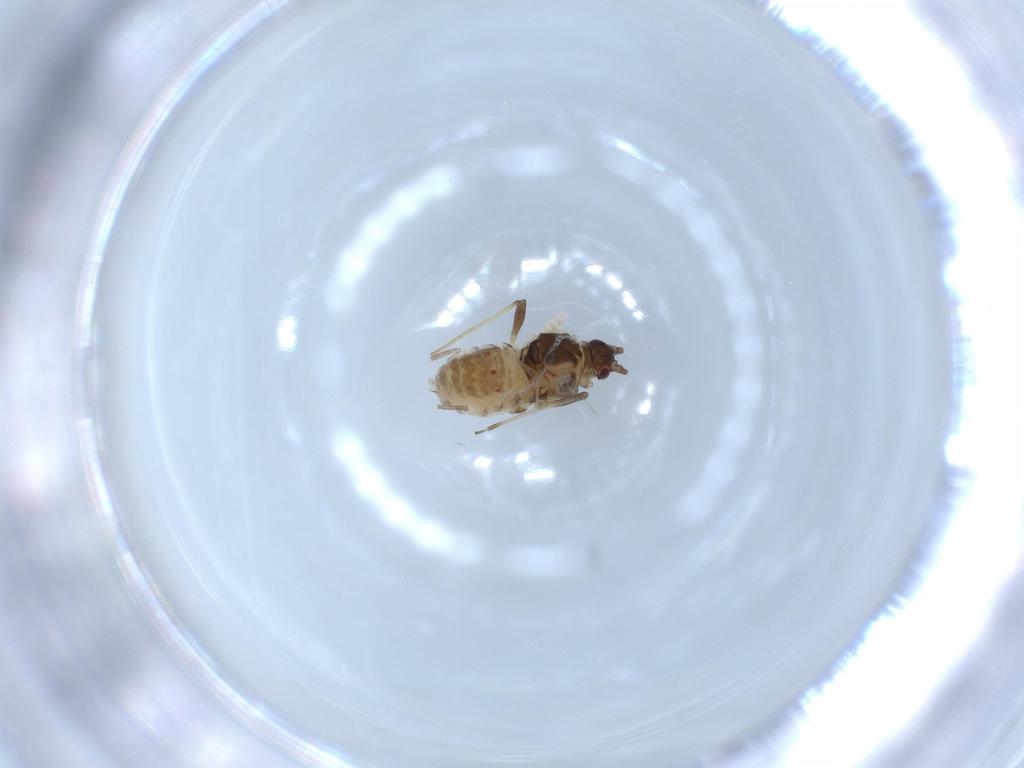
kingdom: Animalia
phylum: Arthropoda
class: Insecta
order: Hemiptera
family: Aphididae
